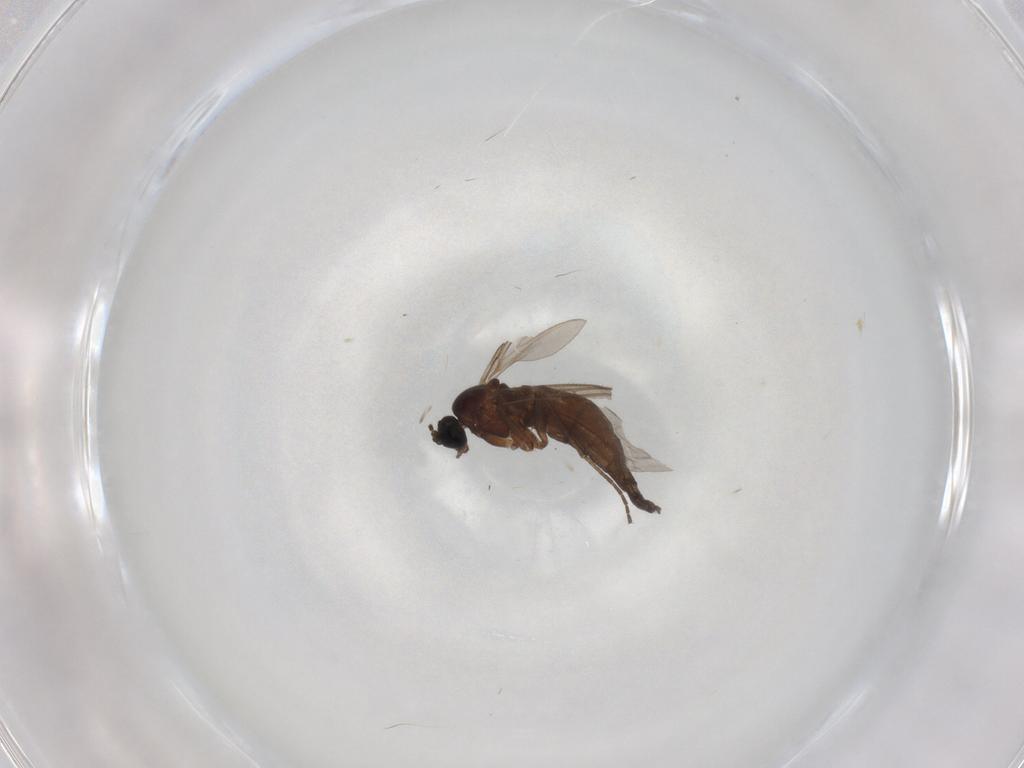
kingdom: Animalia
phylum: Arthropoda
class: Insecta
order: Diptera
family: Sciaridae
